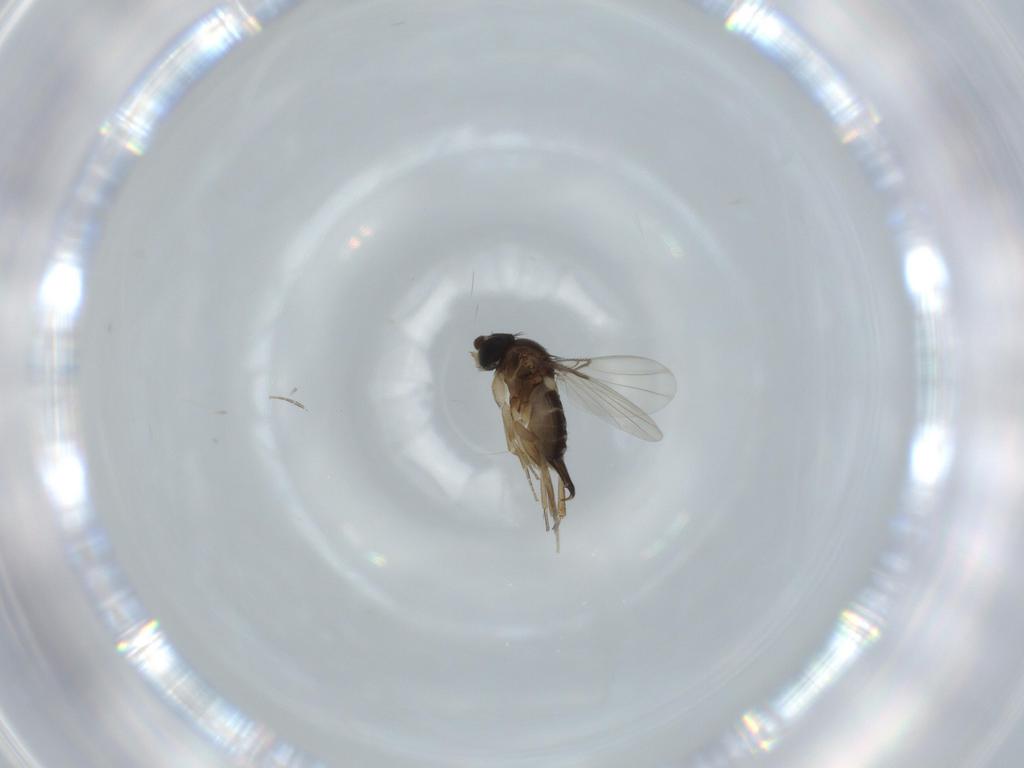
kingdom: Animalia
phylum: Arthropoda
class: Insecta
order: Diptera
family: Phoridae
